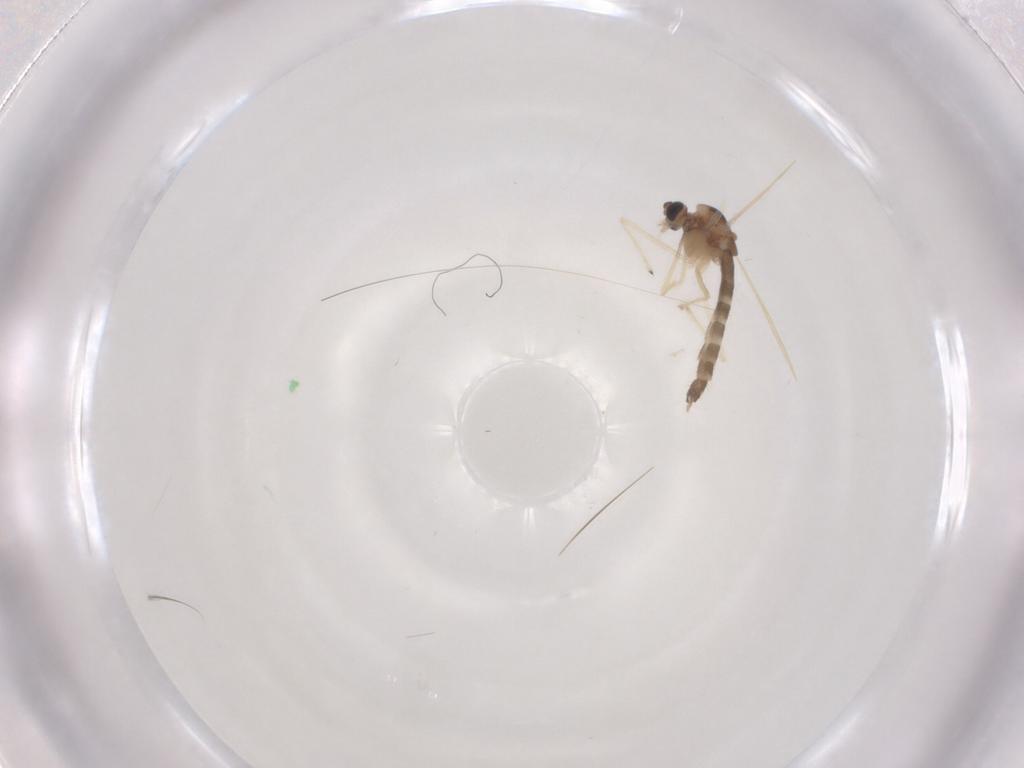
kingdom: Animalia
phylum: Arthropoda
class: Insecta
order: Diptera
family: Chironomidae
